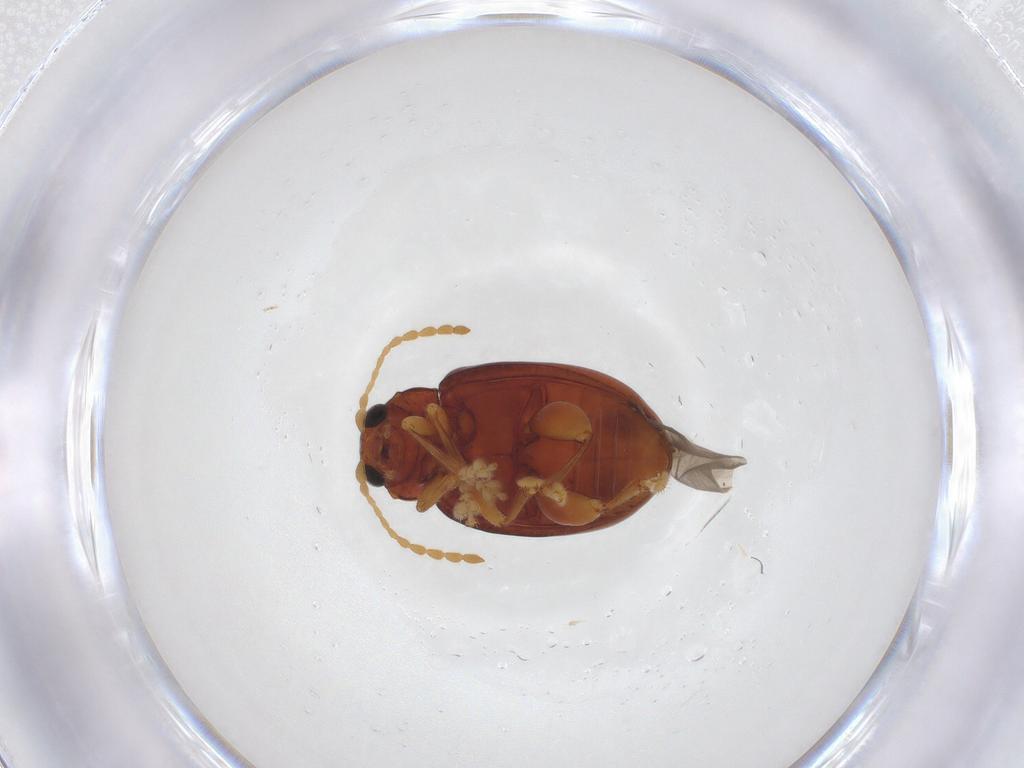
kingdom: Animalia
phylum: Arthropoda
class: Insecta
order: Coleoptera
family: Chrysomelidae
